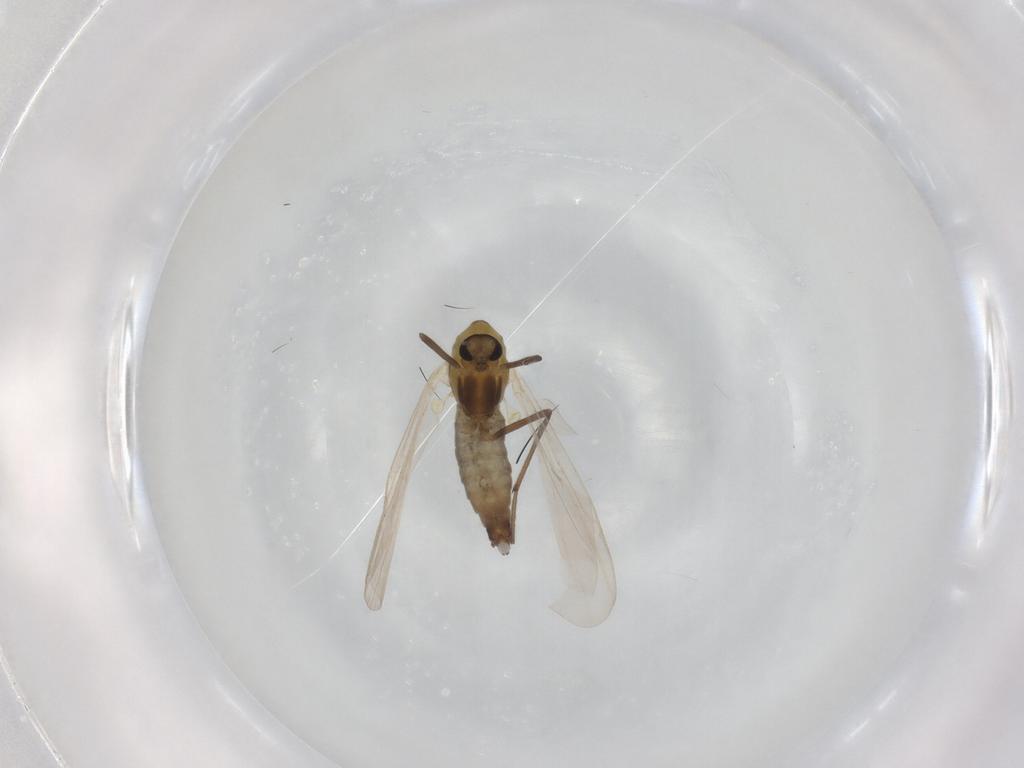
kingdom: Animalia
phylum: Arthropoda
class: Insecta
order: Diptera
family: Chironomidae
